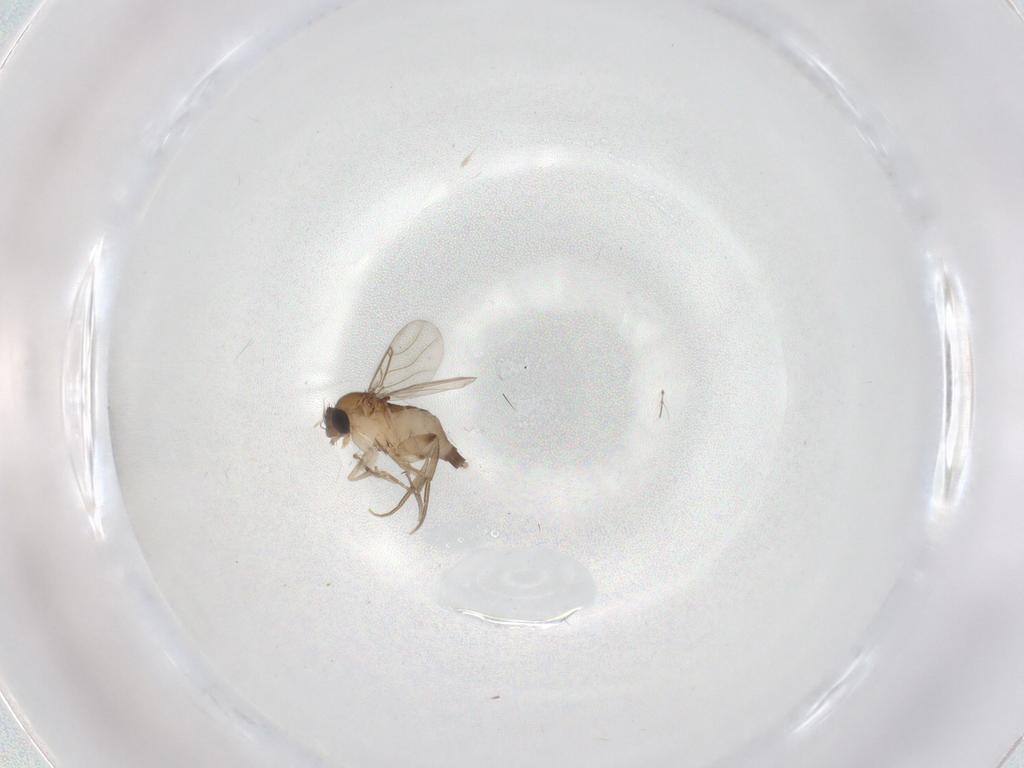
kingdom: Animalia
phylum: Arthropoda
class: Insecta
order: Diptera
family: Phoridae
